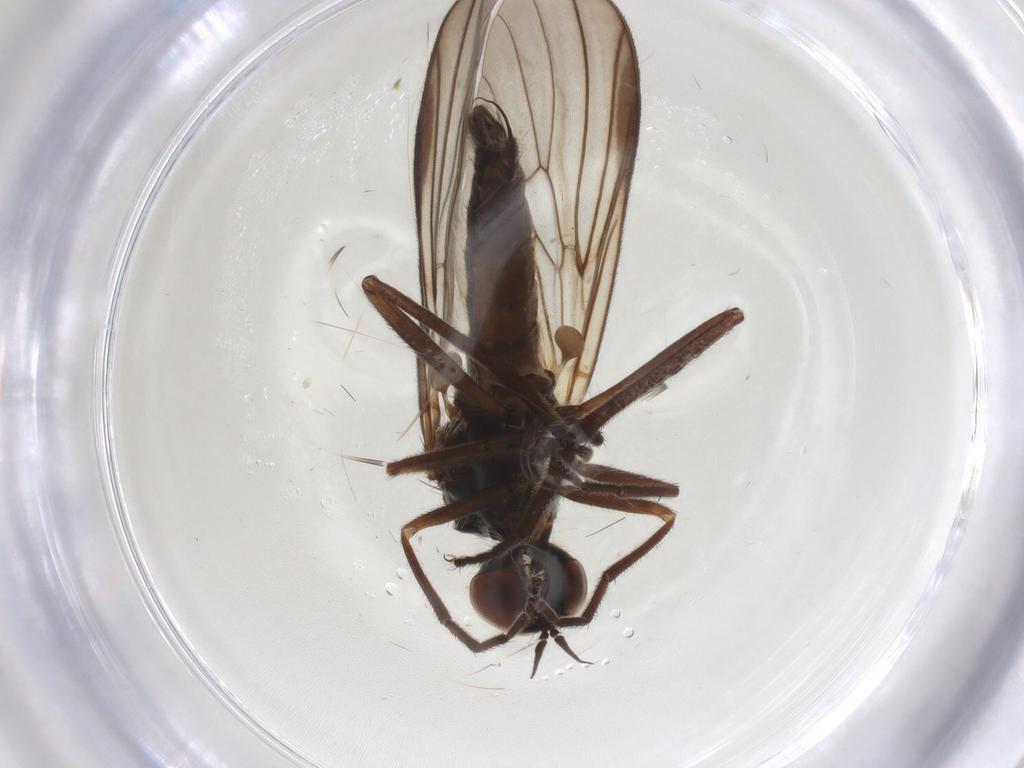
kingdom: Animalia
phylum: Arthropoda
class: Insecta
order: Diptera
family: Empididae
